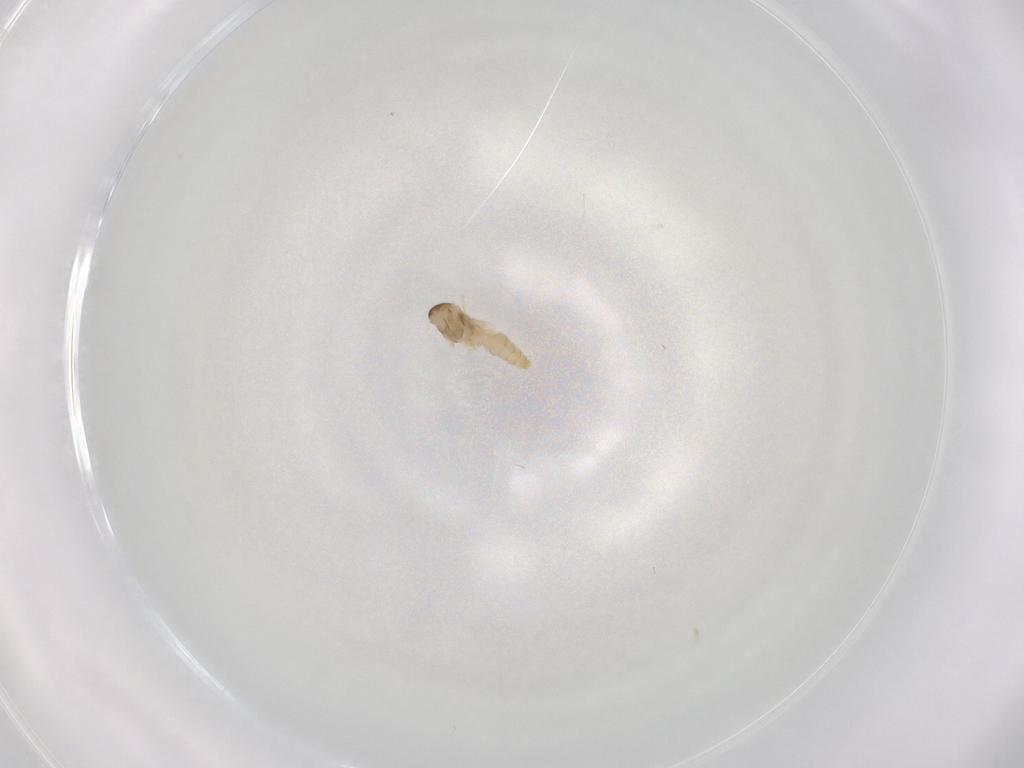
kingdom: Animalia
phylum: Arthropoda
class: Insecta
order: Diptera
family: Cecidomyiidae
